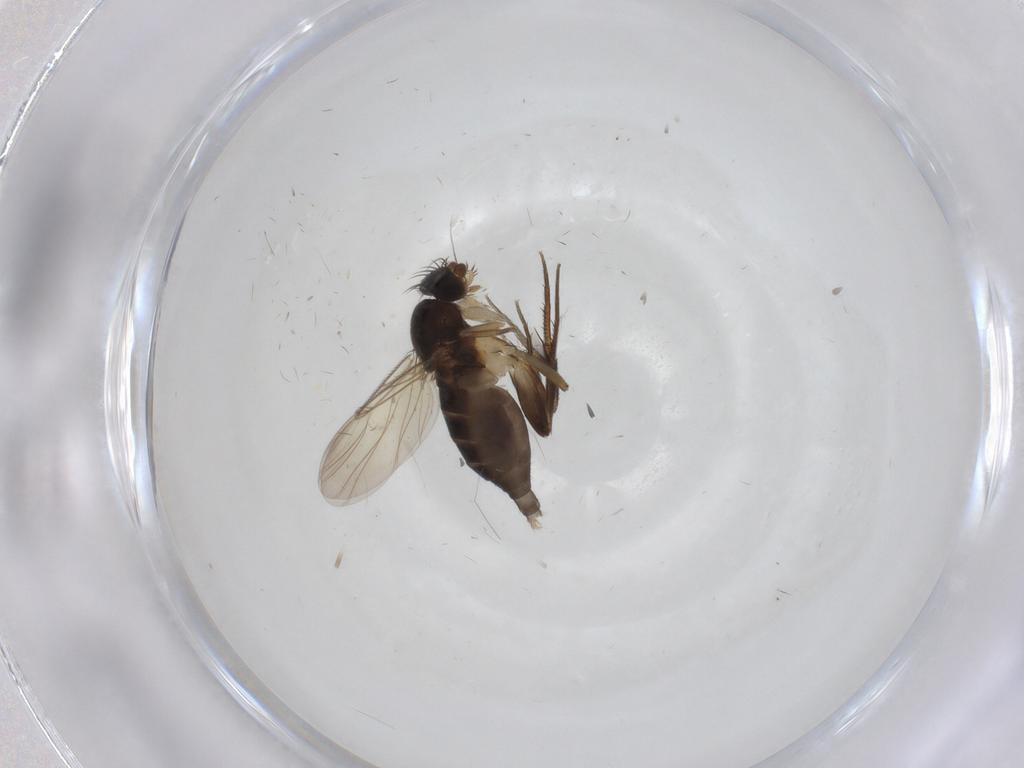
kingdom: Animalia
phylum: Arthropoda
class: Insecta
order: Diptera
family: Phoridae
